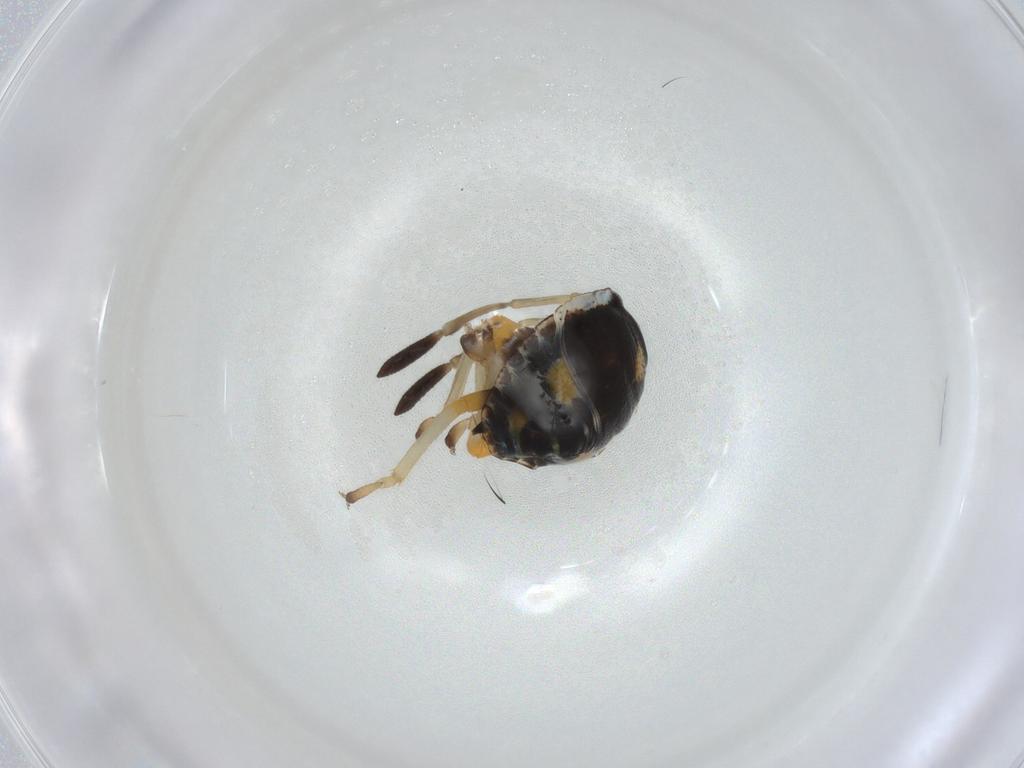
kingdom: Animalia
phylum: Arthropoda
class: Insecta
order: Hemiptera
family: Pentatomidae
